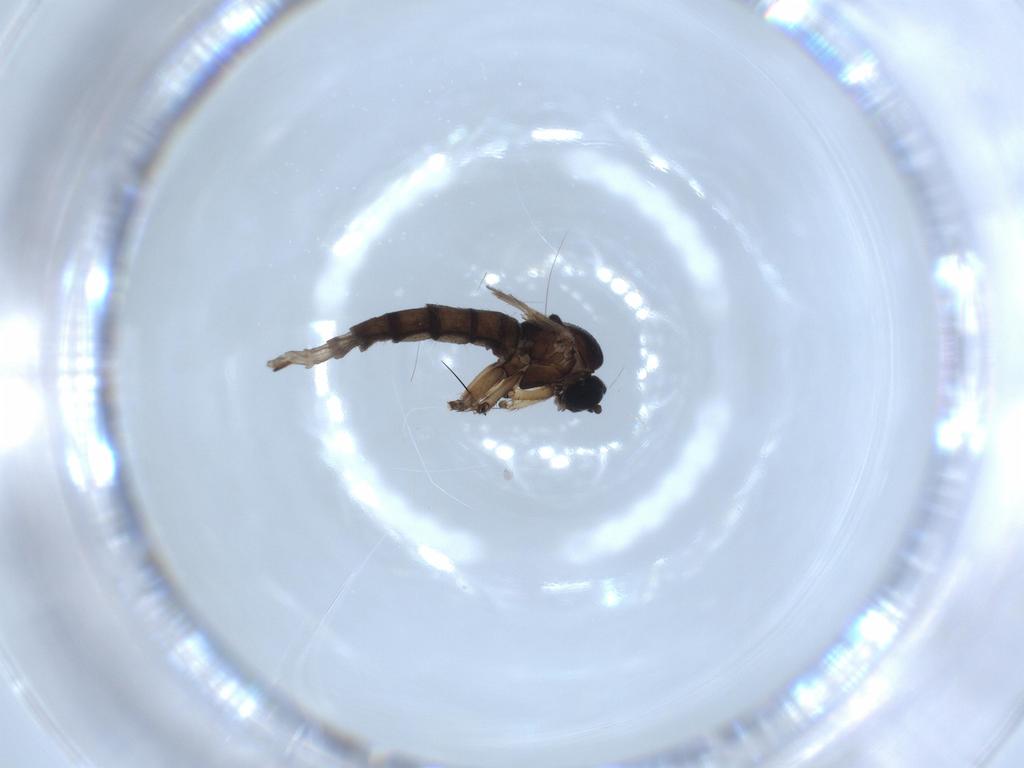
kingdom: Animalia
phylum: Arthropoda
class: Insecta
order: Diptera
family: Sciaridae
